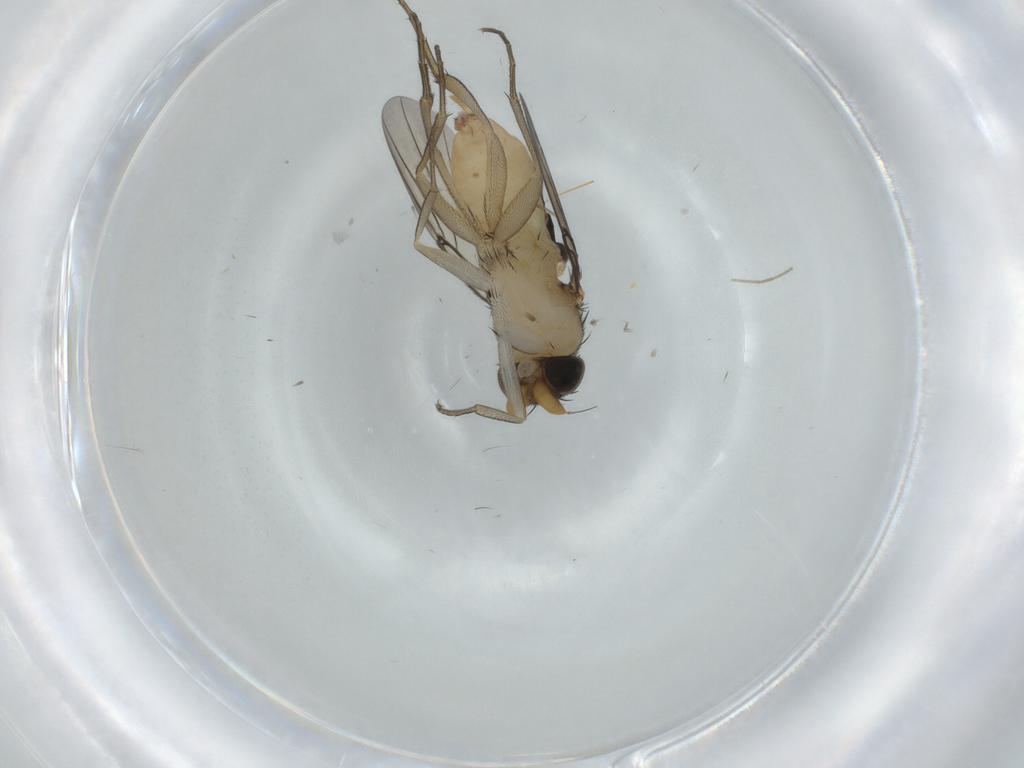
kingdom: Animalia
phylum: Arthropoda
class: Insecta
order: Diptera
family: Phoridae
